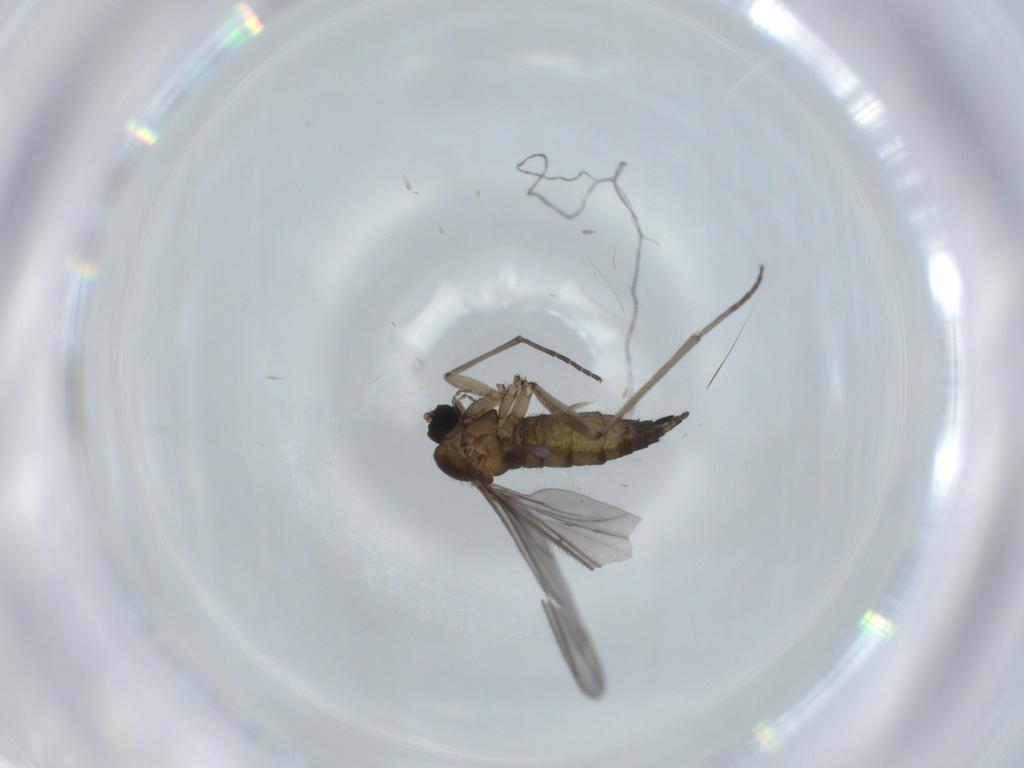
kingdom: Animalia
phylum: Arthropoda
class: Insecta
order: Diptera
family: Sciaridae
